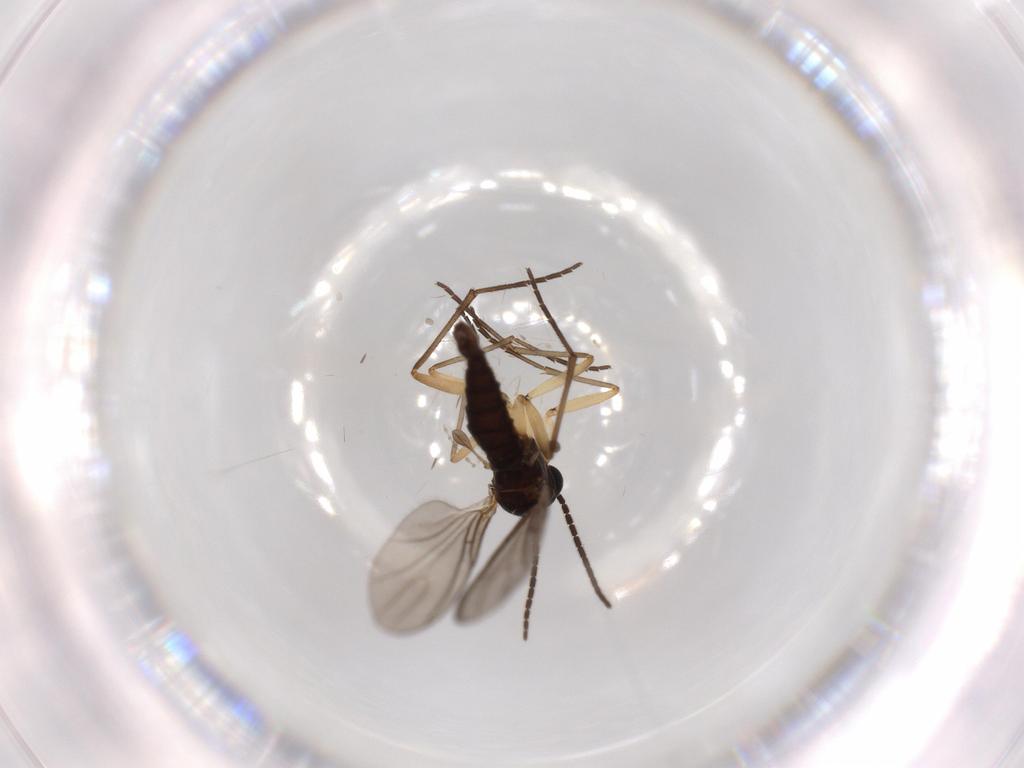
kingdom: Animalia
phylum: Arthropoda
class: Insecta
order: Diptera
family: Sciaridae
